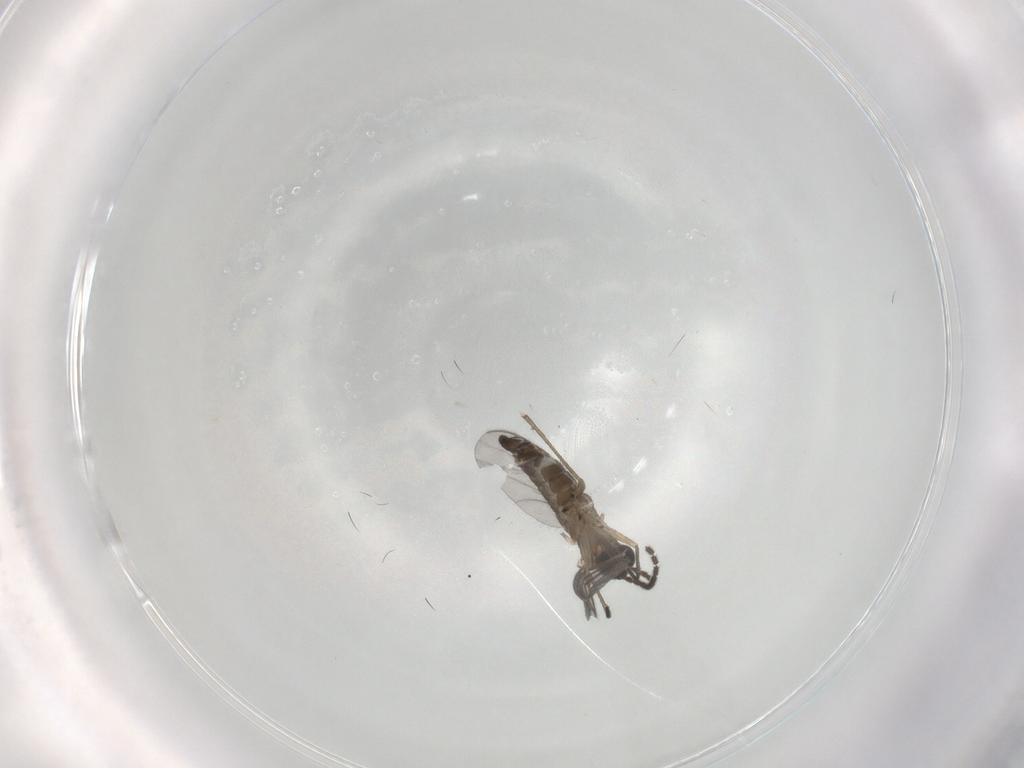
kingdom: Animalia
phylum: Arthropoda
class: Insecta
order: Diptera
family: Sciaridae
